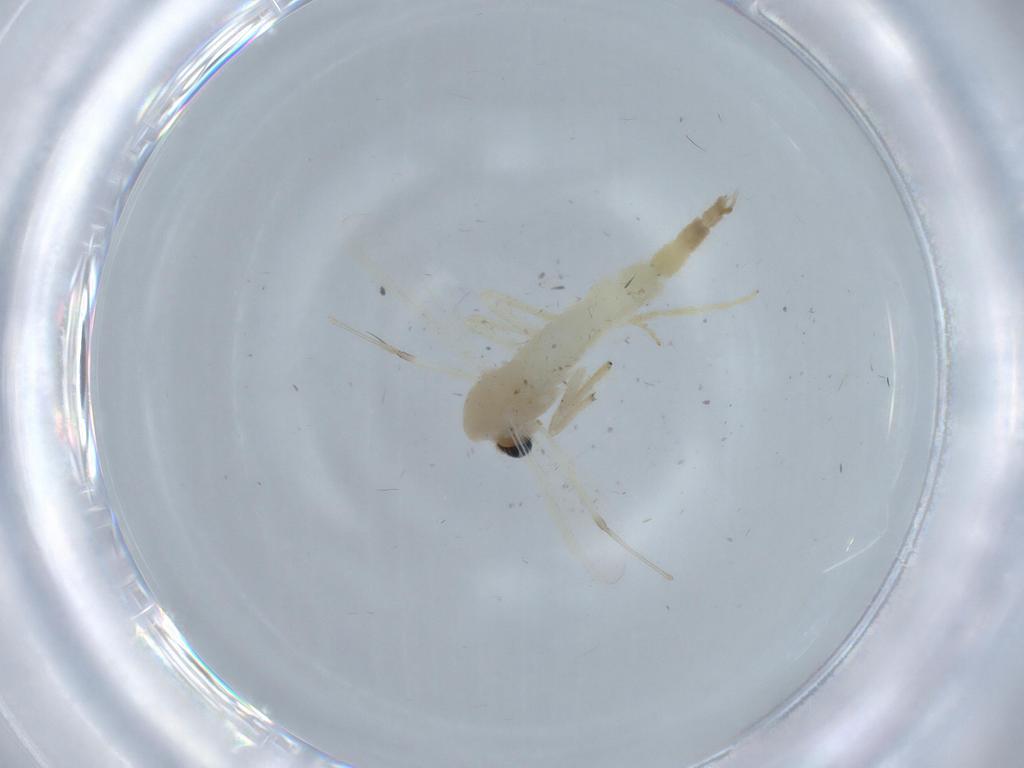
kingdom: Animalia
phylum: Arthropoda
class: Insecta
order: Diptera
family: Chironomidae
